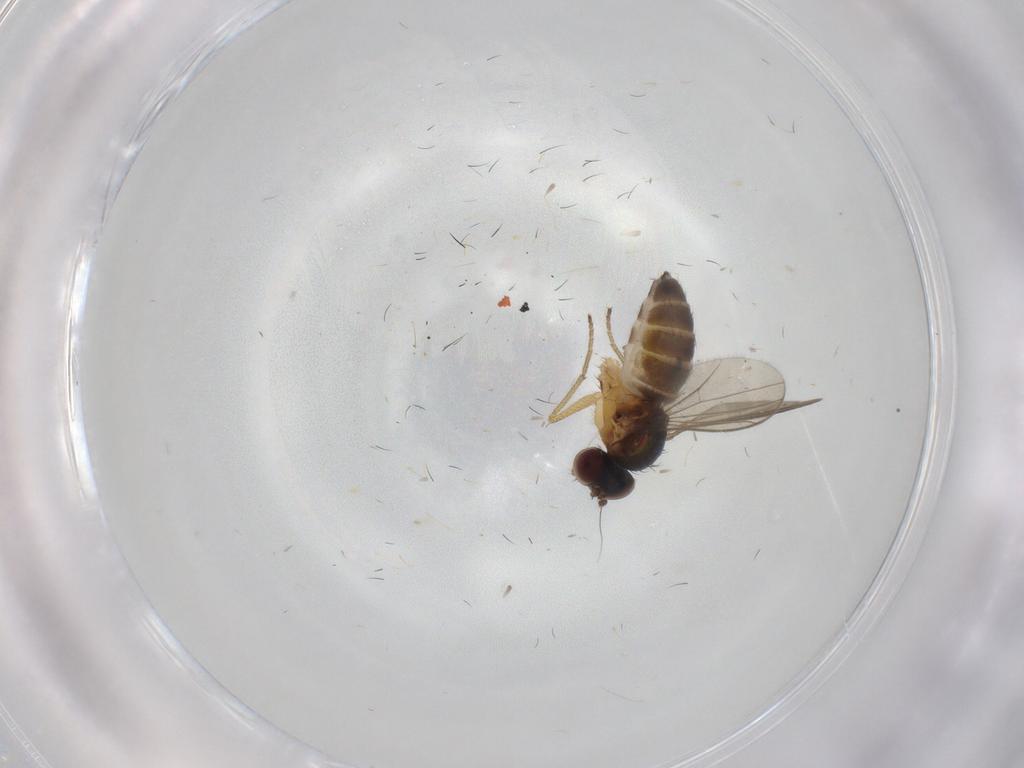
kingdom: Animalia
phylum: Arthropoda
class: Insecta
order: Diptera
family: Dolichopodidae
